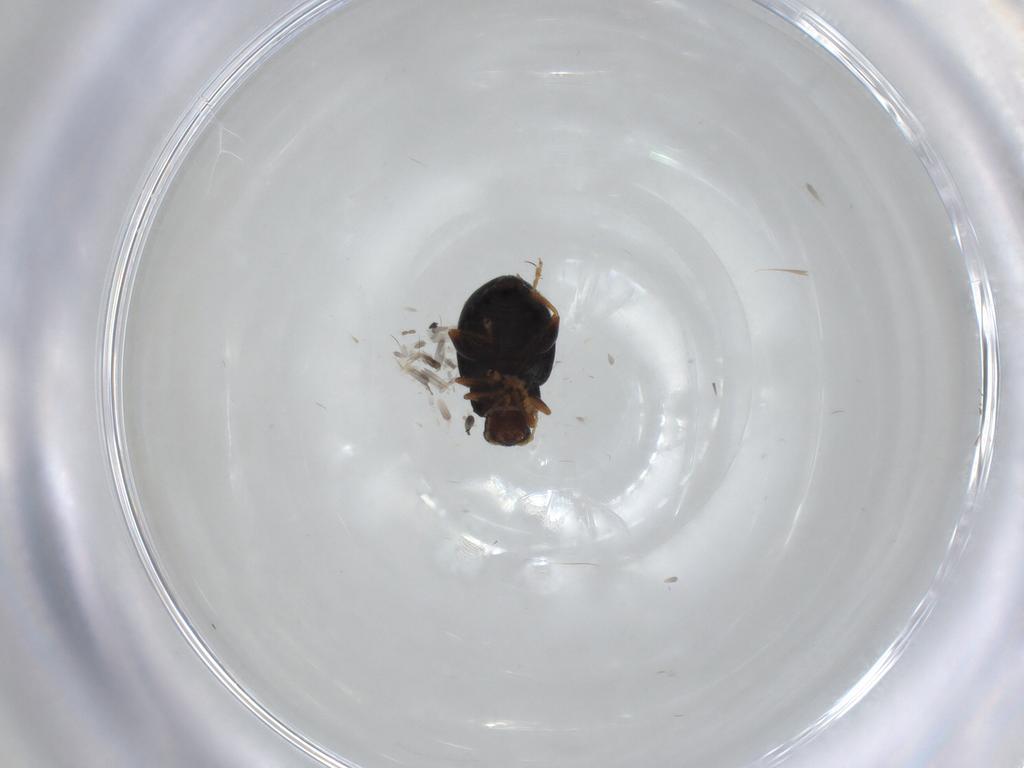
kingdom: Animalia
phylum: Arthropoda
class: Insecta
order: Coleoptera
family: Chrysomelidae
